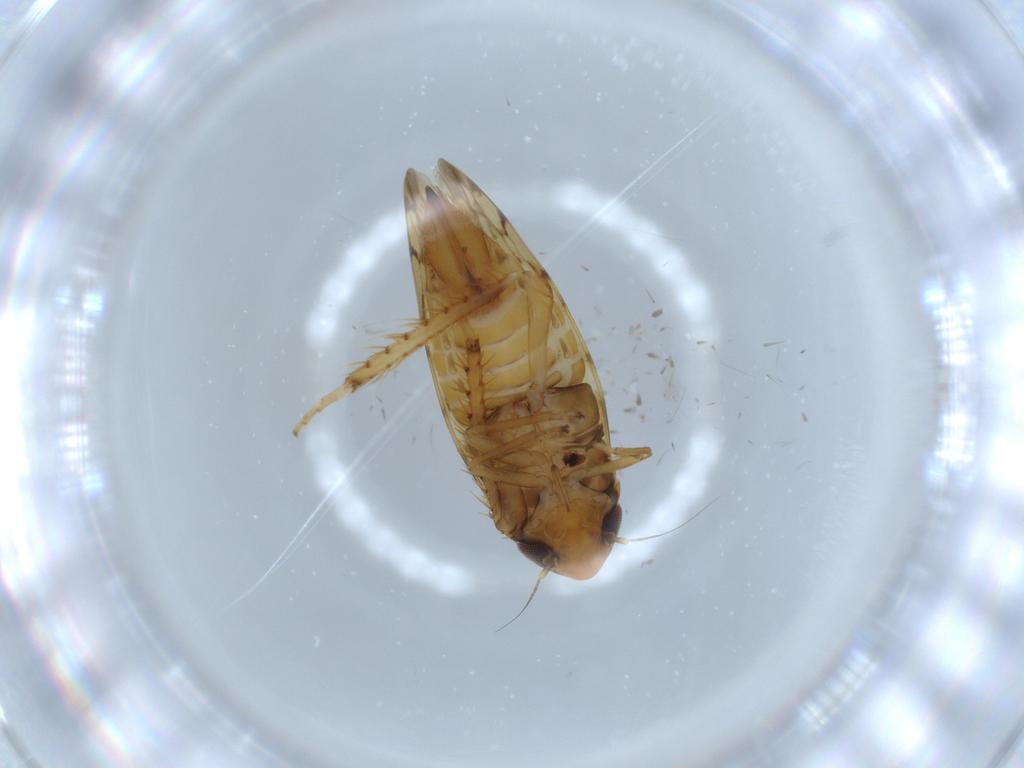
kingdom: Animalia
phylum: Arthropoda
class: Insecta
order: Hemiptera
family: Cicadellidae
